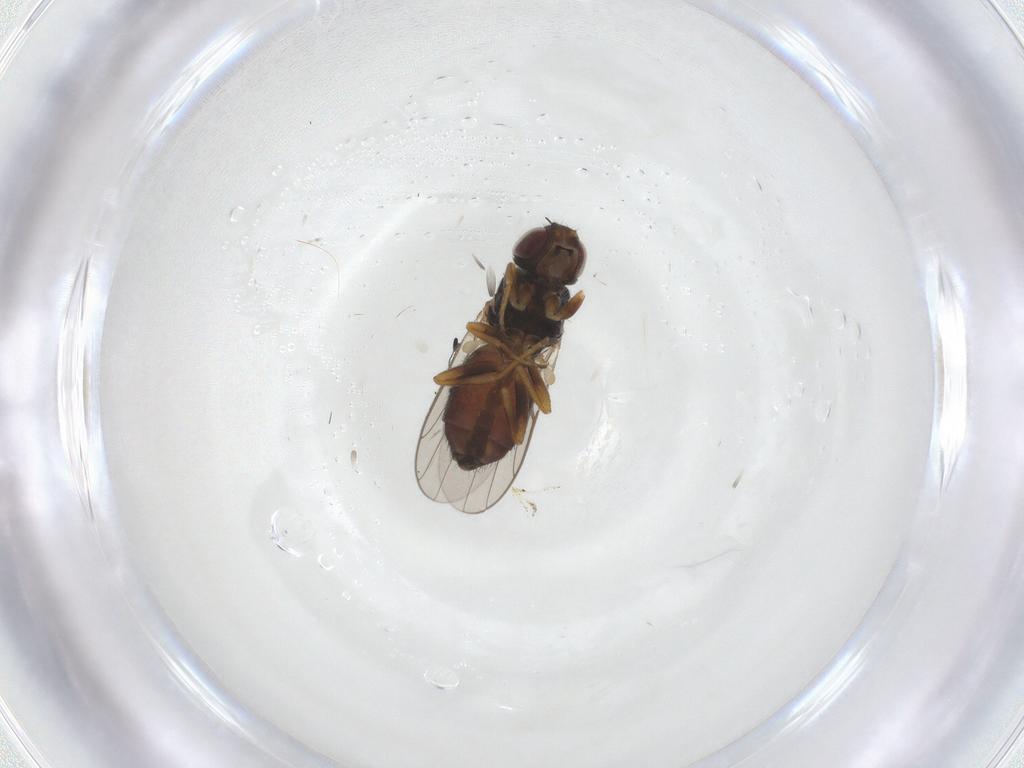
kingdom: Animalia
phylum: Arthropoda
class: Insecta
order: Diptera
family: Chloropidae
